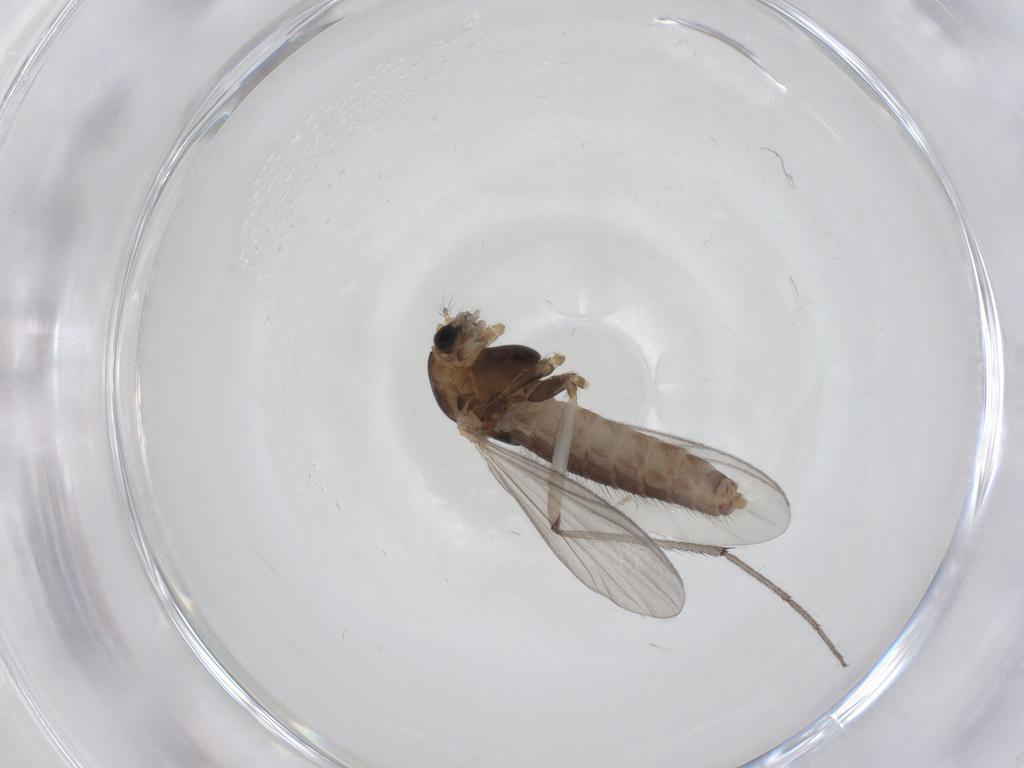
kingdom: Animalia
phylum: Arthropoda
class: Insecta
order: Diptera
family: Chironomidae
